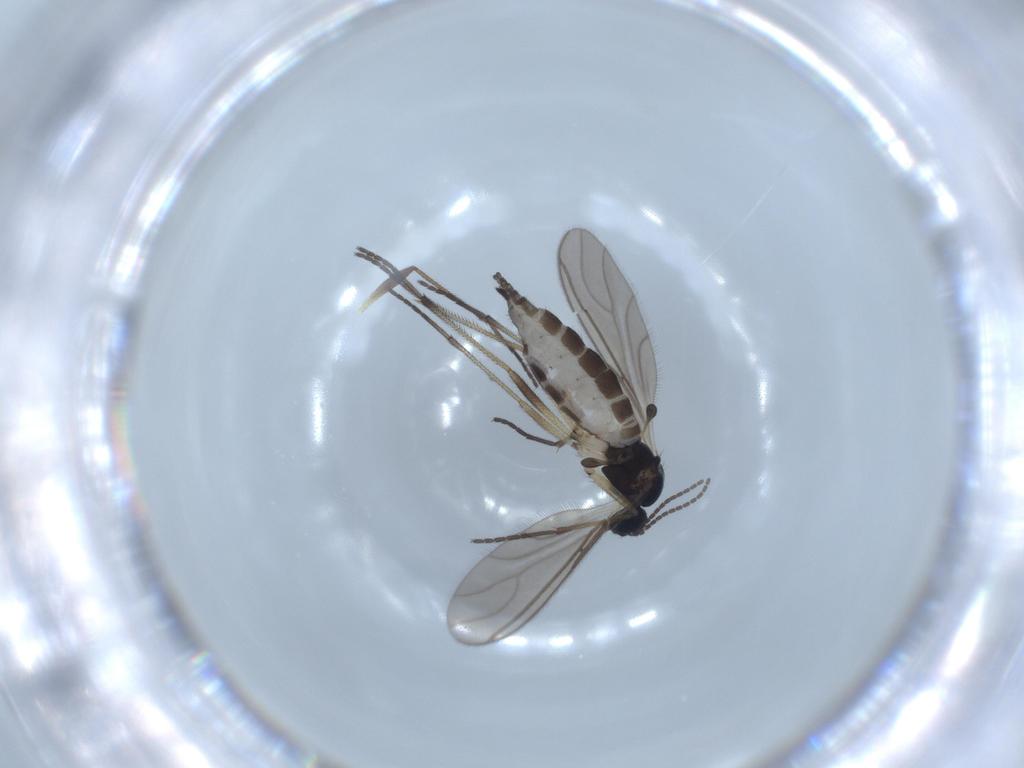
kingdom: Animalia
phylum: Arthropoda
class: Insecta
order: Diptera
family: Sciaridae
